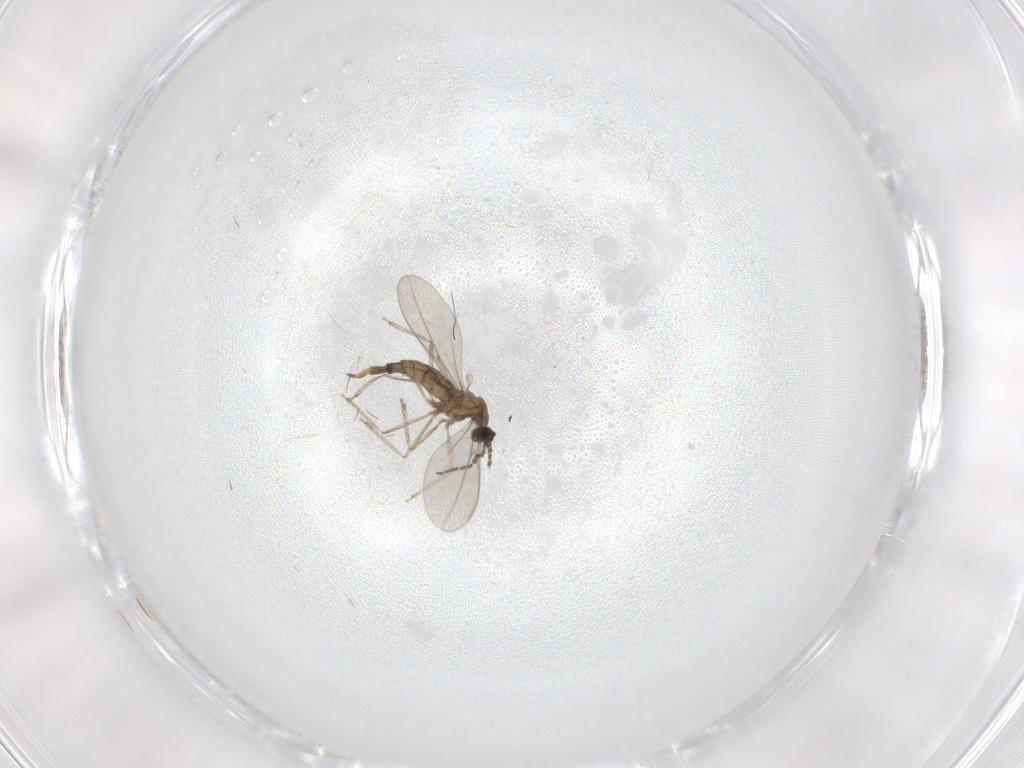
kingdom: Animalia
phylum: Arthropoda
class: Insecta
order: Diptera
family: Cecidomyiidae
